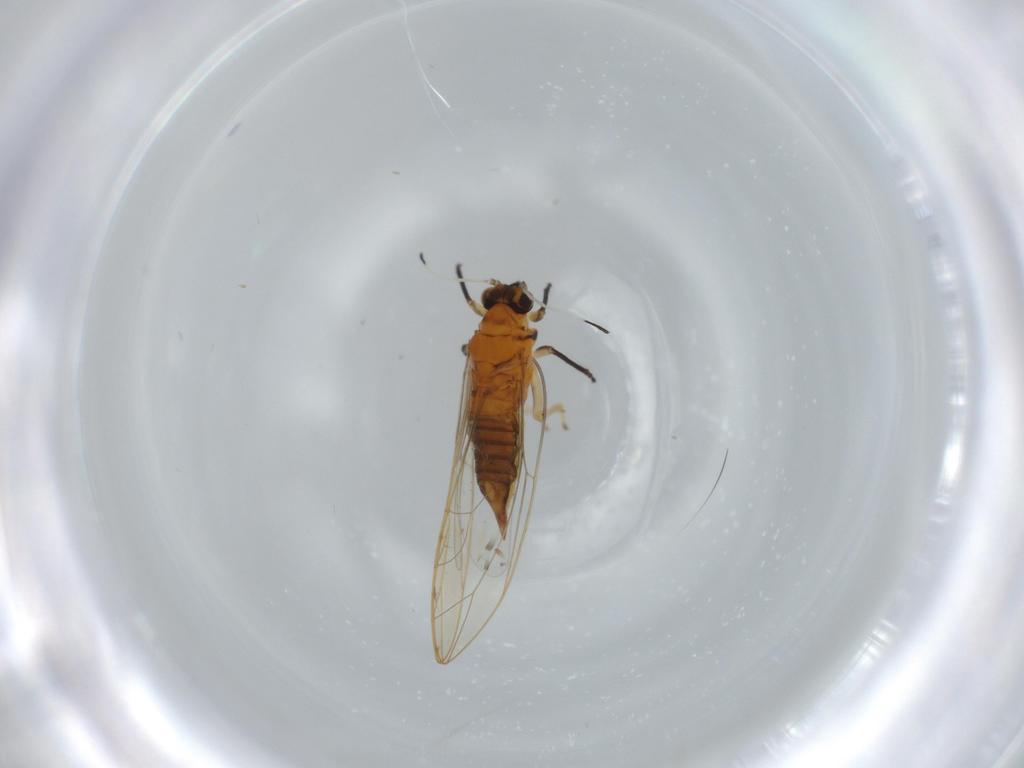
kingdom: Animalia
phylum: Arthropoda
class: Insecta
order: Hemiptera
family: Triozidae
